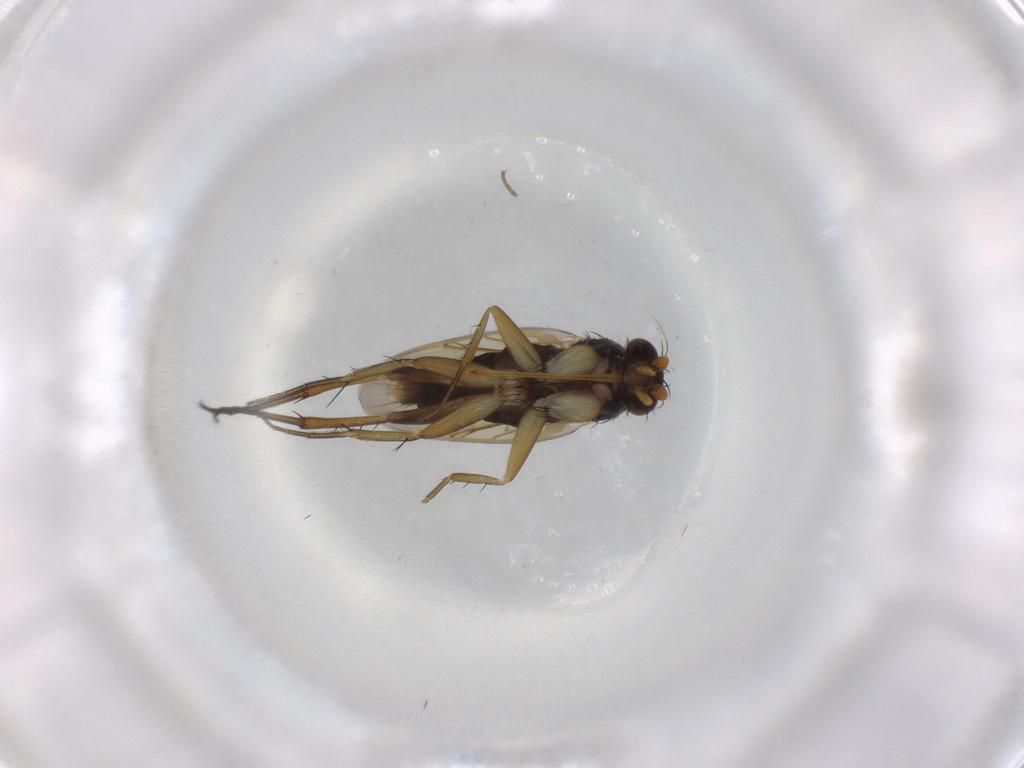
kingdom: Animalia
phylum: Arthropoda
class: Insecta
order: Diptera
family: Phoridae
